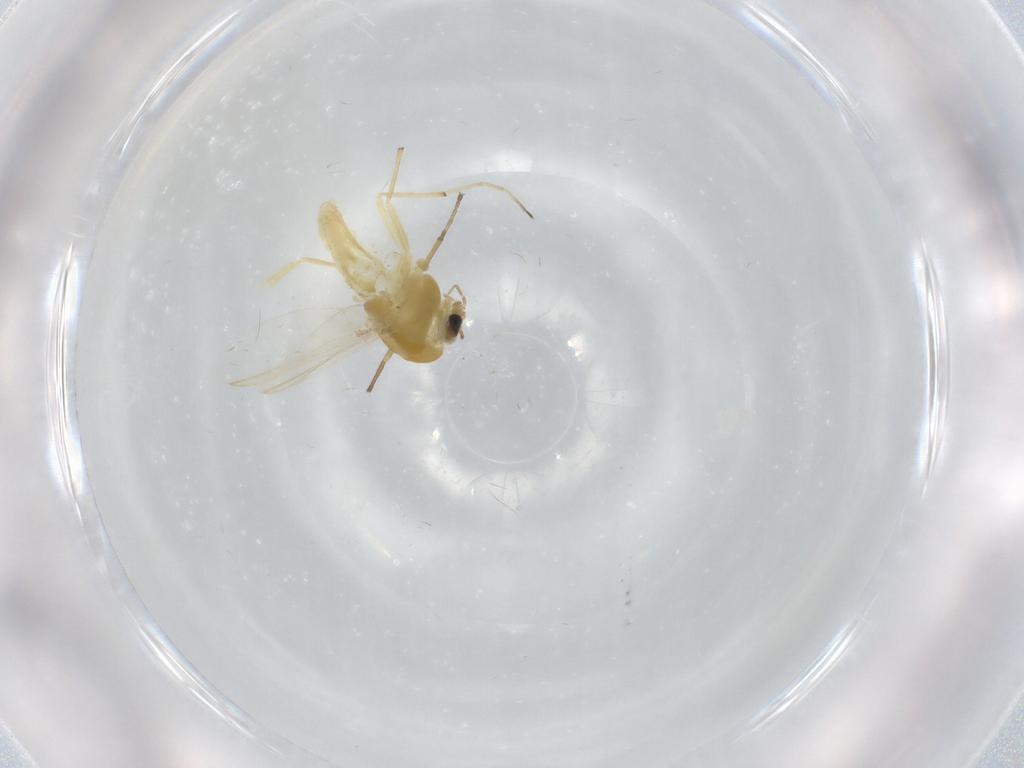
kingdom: Animalia
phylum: Arthropoda
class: Insecta
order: Diptera
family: Chironomidae
